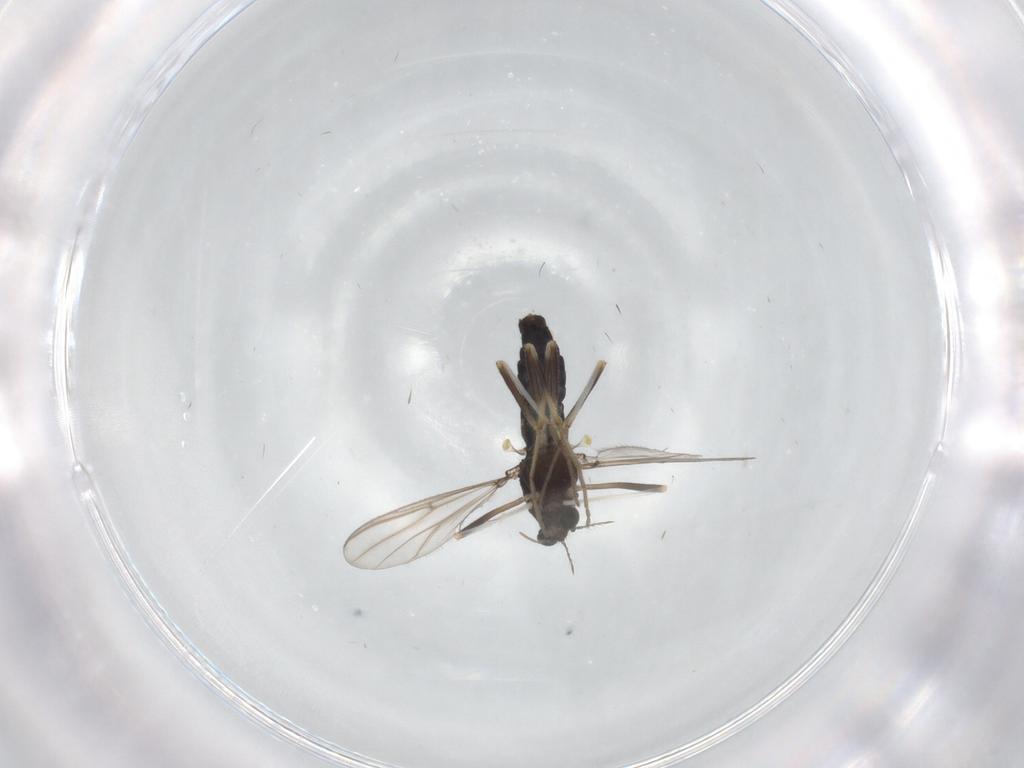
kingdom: Animalia
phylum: Arthropoda
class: Insecta
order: Diptera
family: Chironomidae
